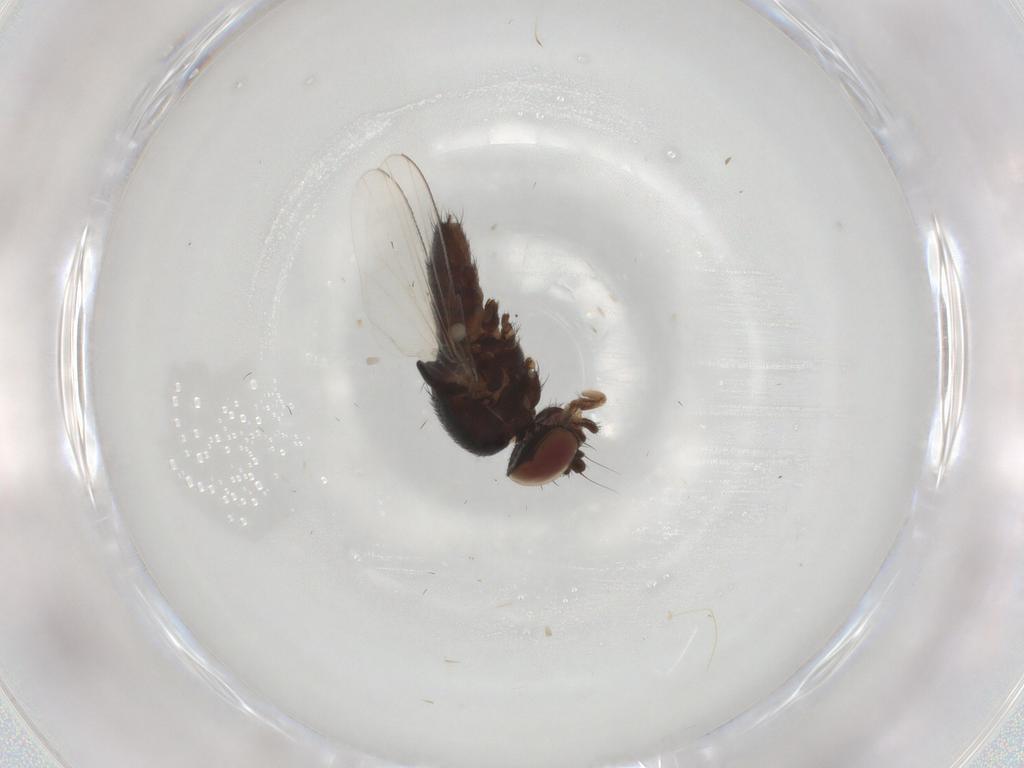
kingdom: Animalia
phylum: Arthropoda
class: Insecta
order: Diptera
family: Milichiidae
